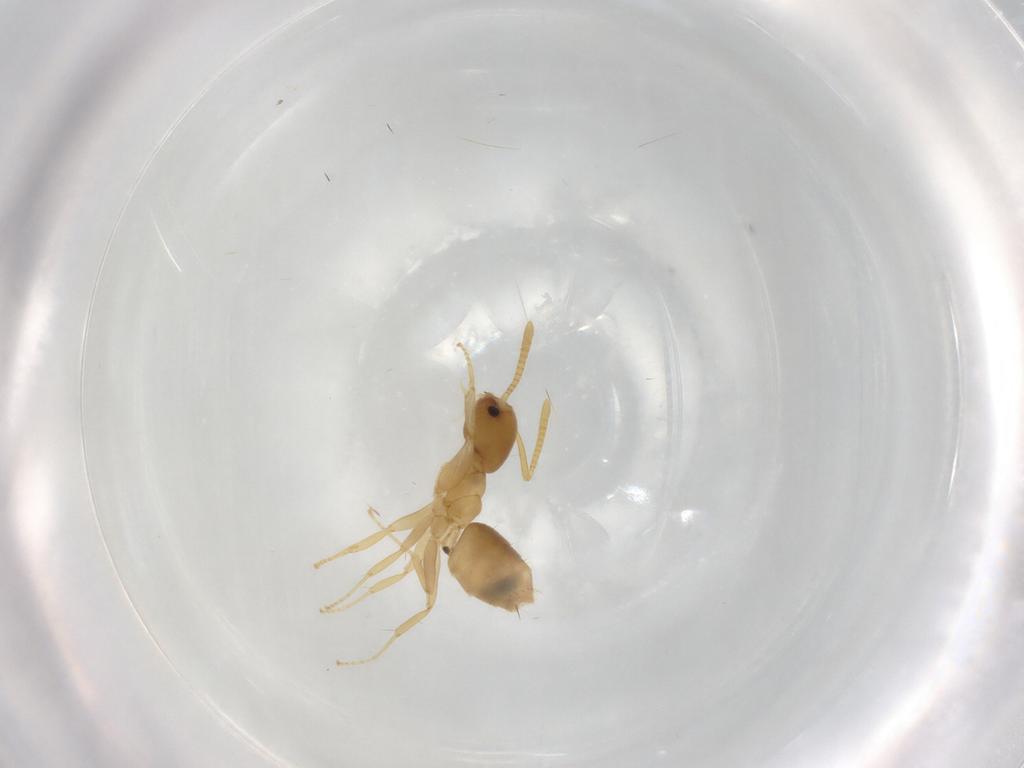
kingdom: Animalia
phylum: Arthropoda
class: Insecta
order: Hymenoptera
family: Formicidae
